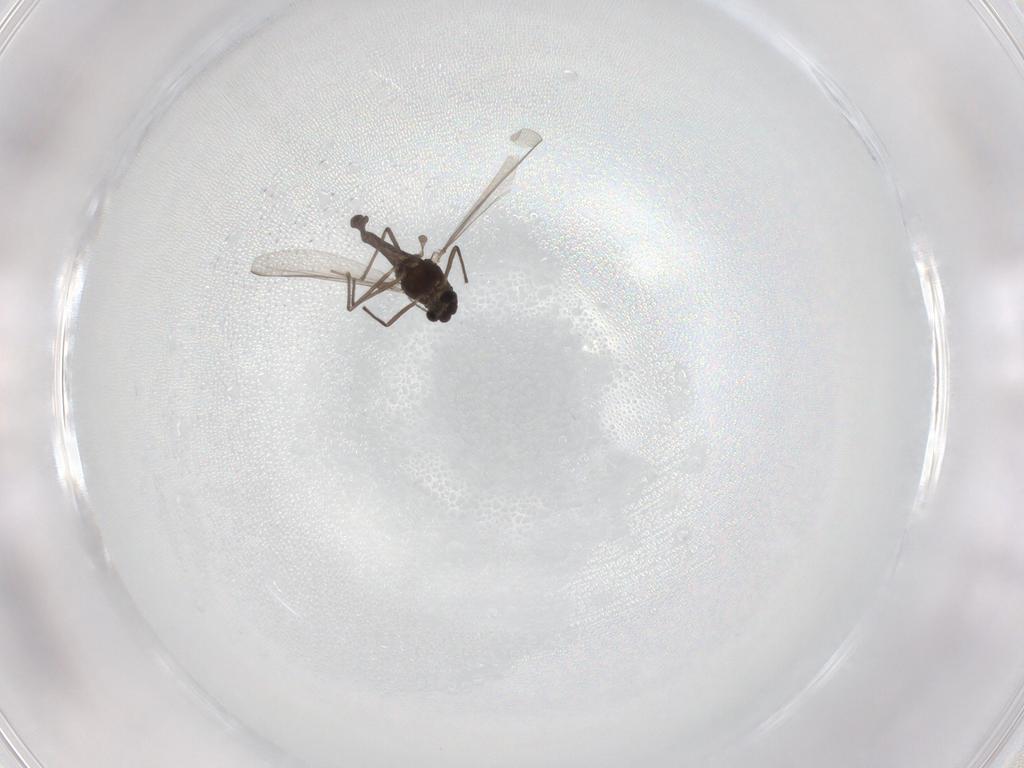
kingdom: Animalia
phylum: Arthropoda
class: Insecta
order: Diptera
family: Chironomidae
